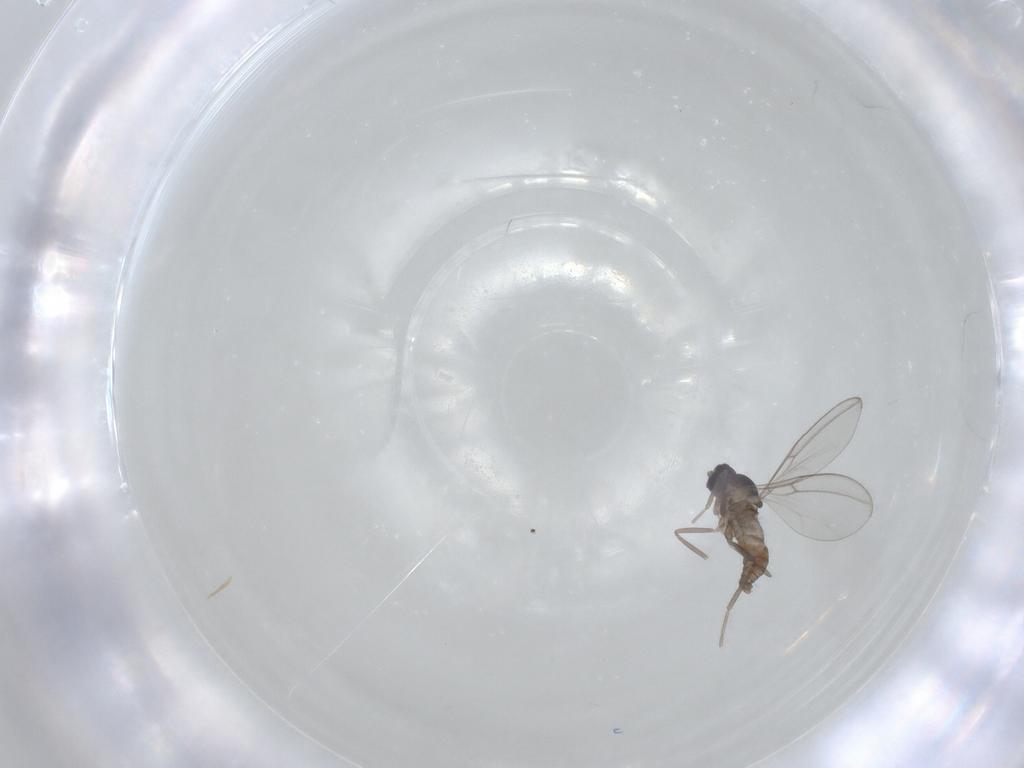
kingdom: Animalia
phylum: Arthropoda
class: Insecta
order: Diptera
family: Cecidomyiidae
